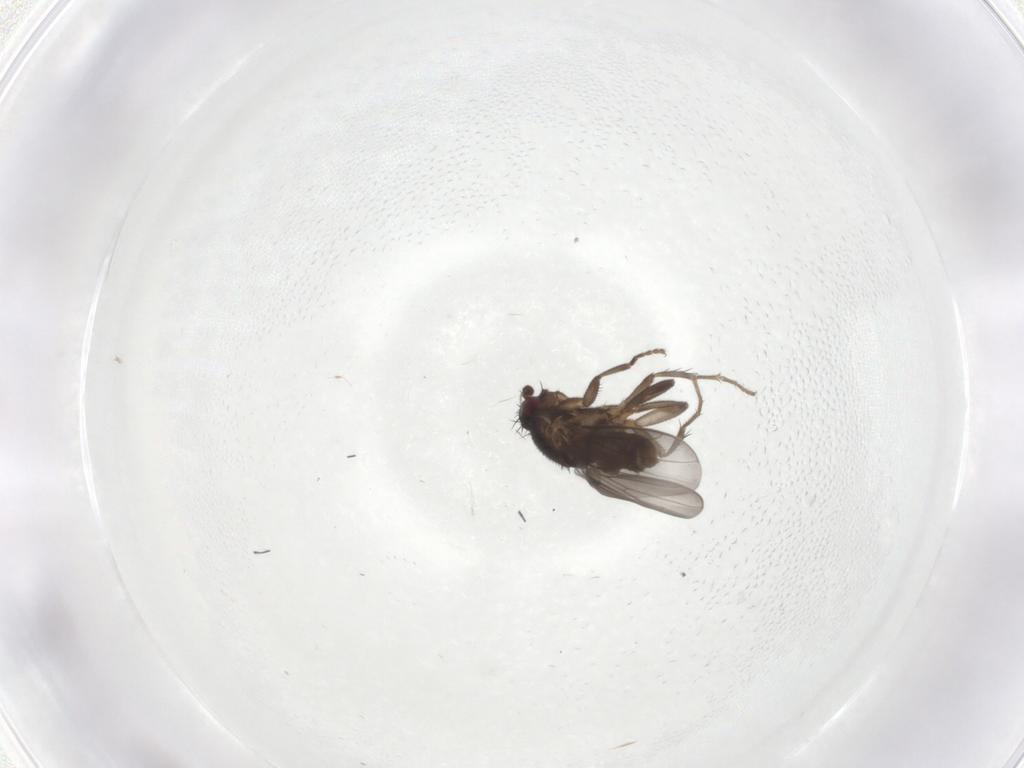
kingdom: Animalia
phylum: Arthropoda
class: Insecta
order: Diptera
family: Sphaeroceridae
